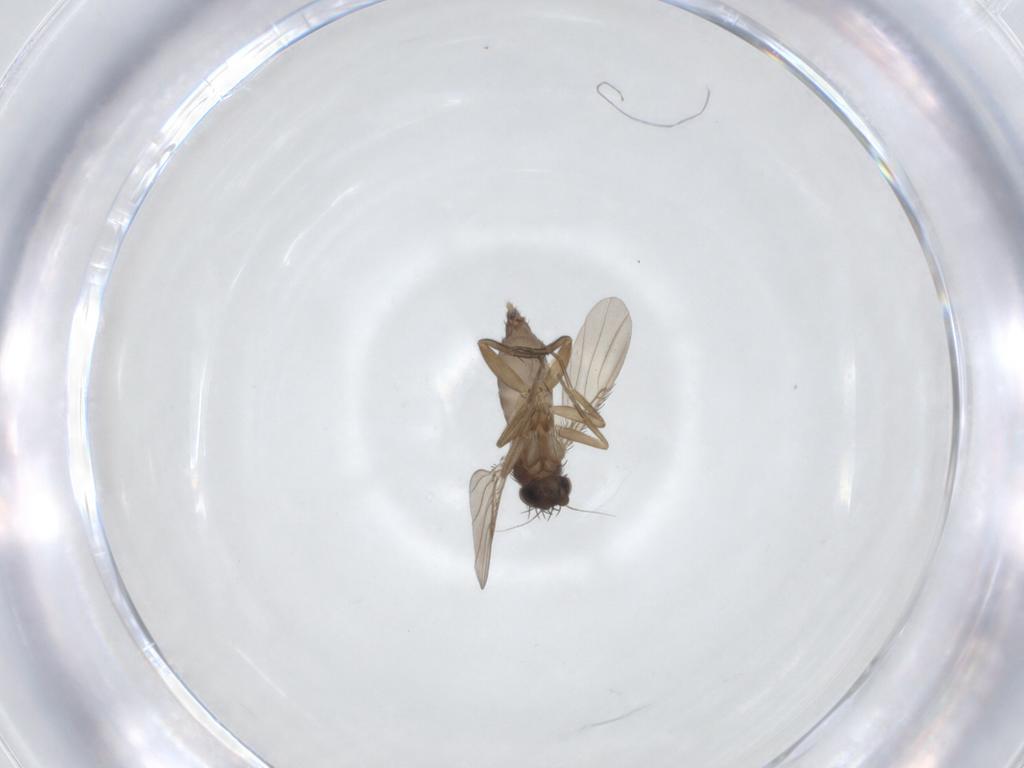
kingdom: Animalia
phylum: Arthropoda
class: Insecta
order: Diptera
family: Phoridae
